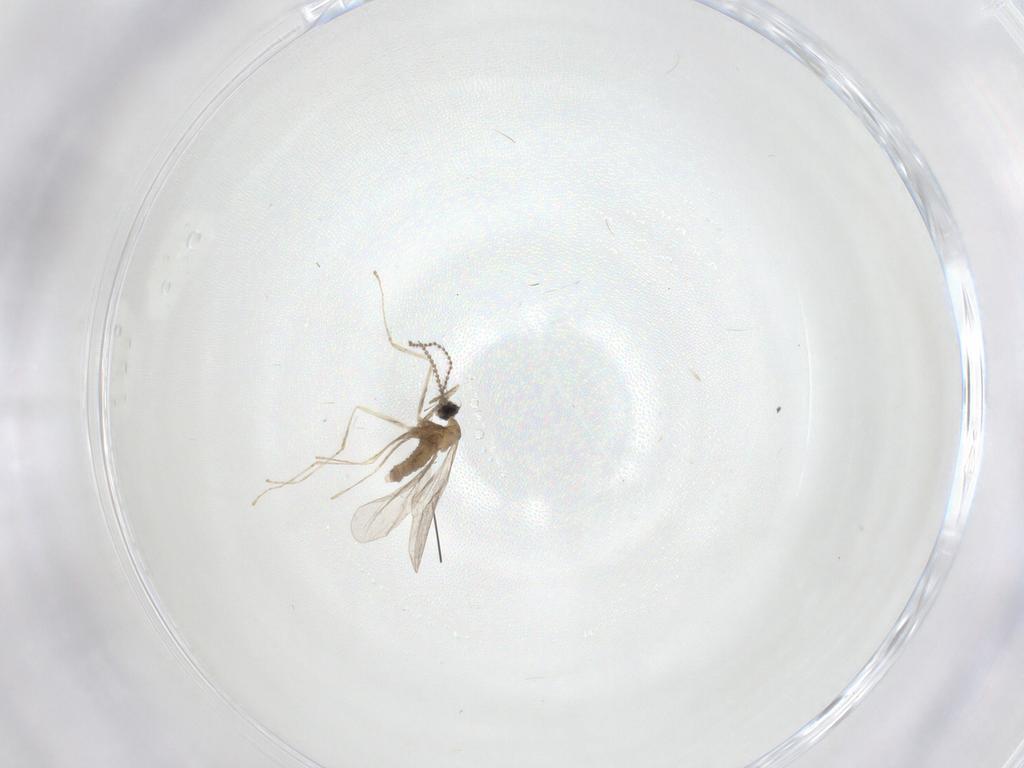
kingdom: Animalia
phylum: Arthropoda
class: Insecta
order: Diptera
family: Cecidomyiidae
